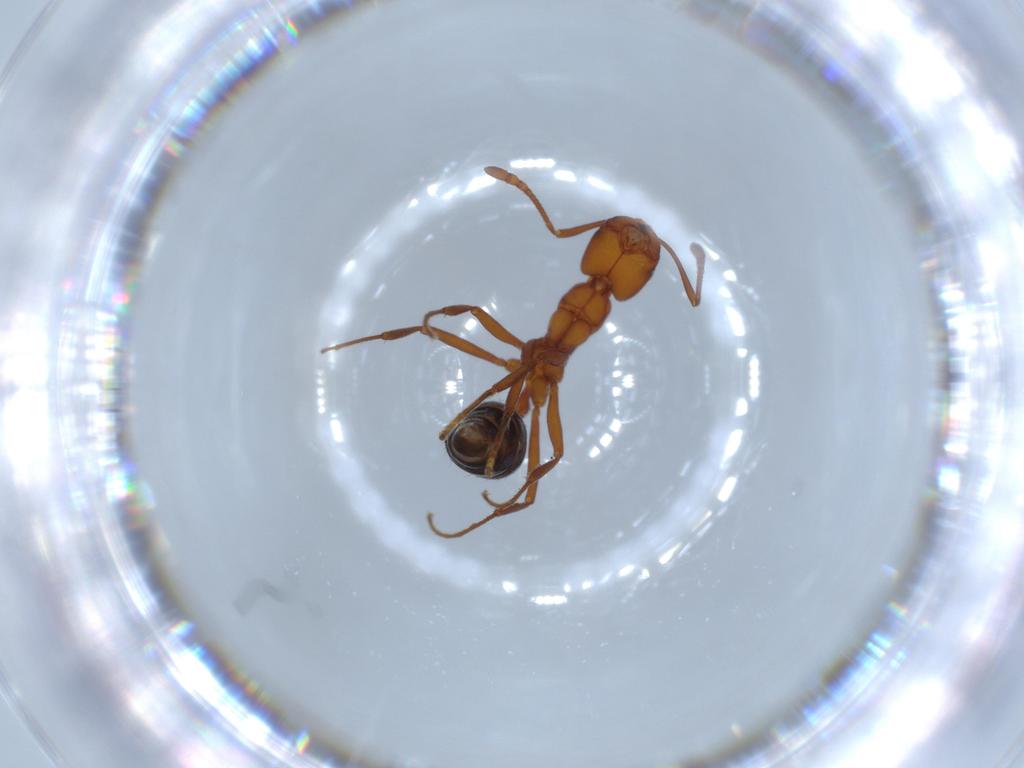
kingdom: Animalia
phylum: Arthropoda
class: Insecta
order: Hymenoptera
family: Formicidae
